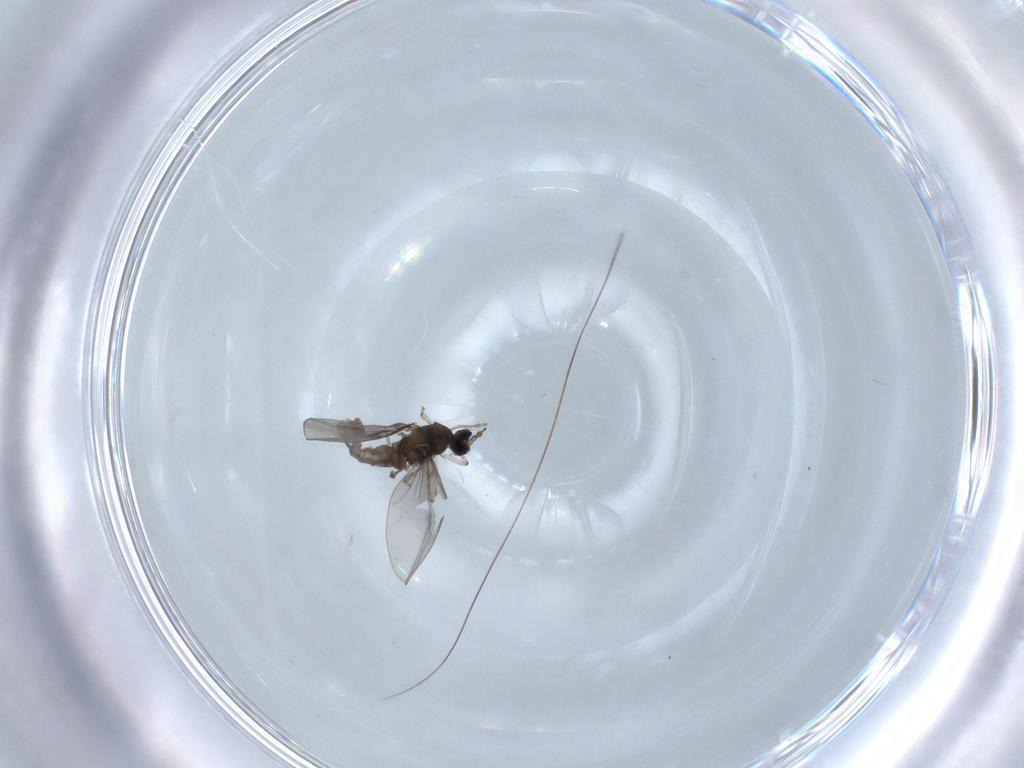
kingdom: Animalia
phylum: Arthropoda
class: Insecta
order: Diptera
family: Cecidomyiidae
